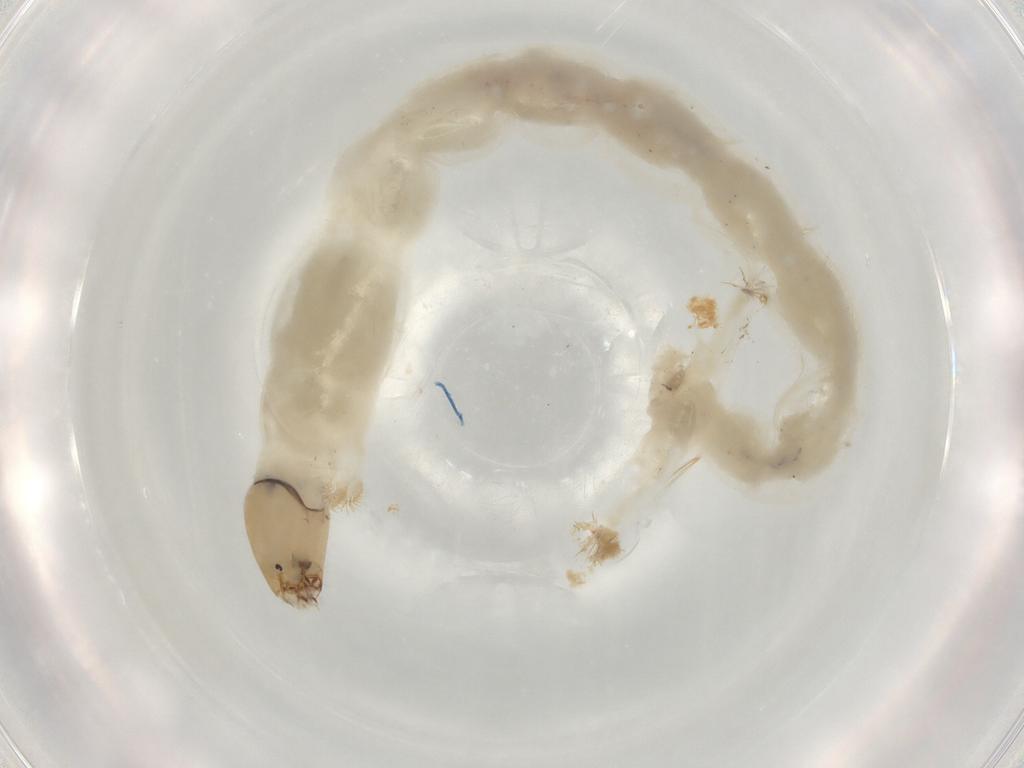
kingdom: Animalia
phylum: Arthropoda
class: Insecta
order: Diptera
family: Chironomidae
